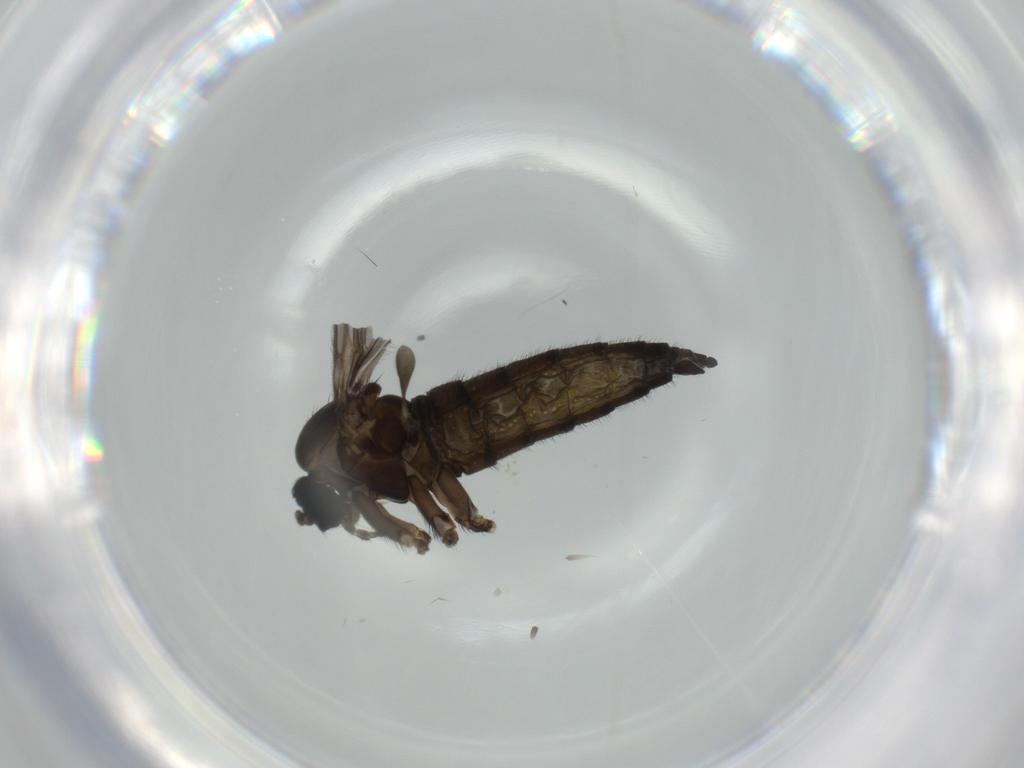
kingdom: Animalia
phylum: Arthropoda
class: Insecta
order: Diptera
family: Sciaridae
